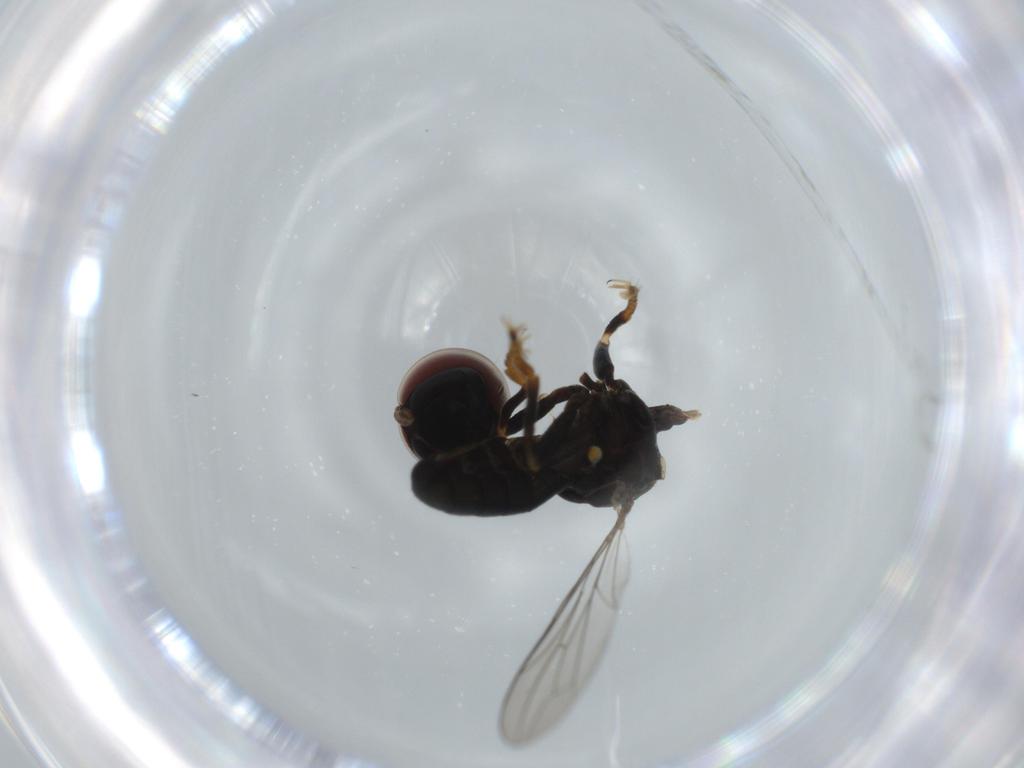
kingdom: Animalia
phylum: Arthropoda
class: Insecta
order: Diptera
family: Pipunculidae
